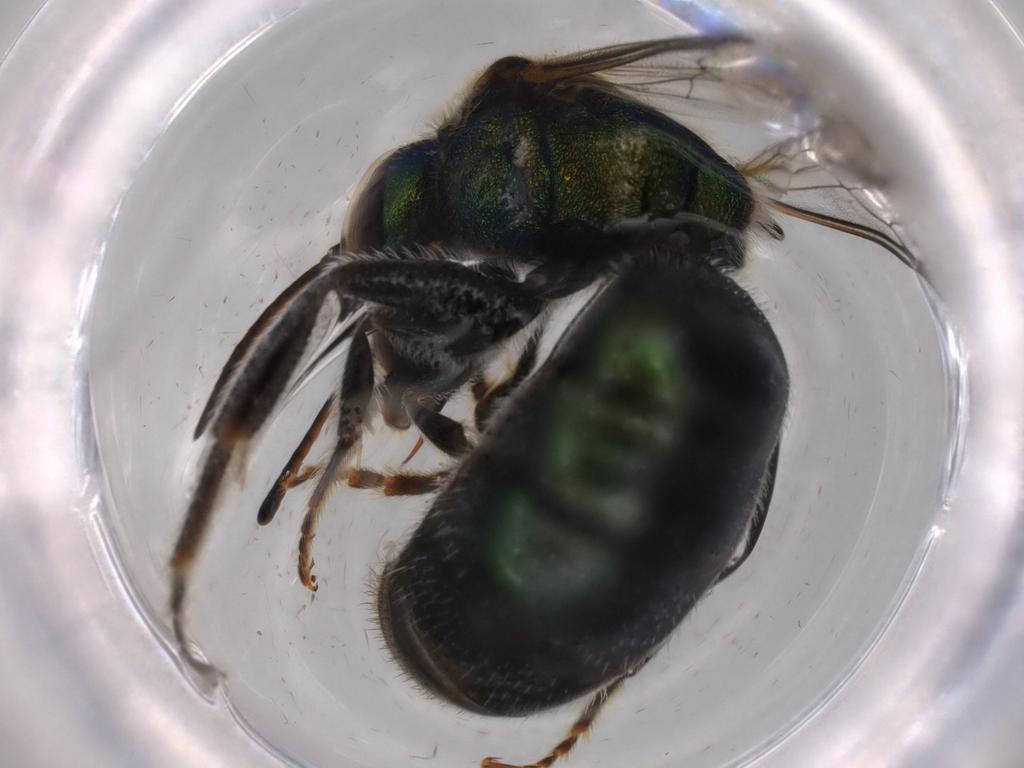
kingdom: Animalia
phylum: Arthropoda
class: Insecta
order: Hymenoptera
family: Halictidae
